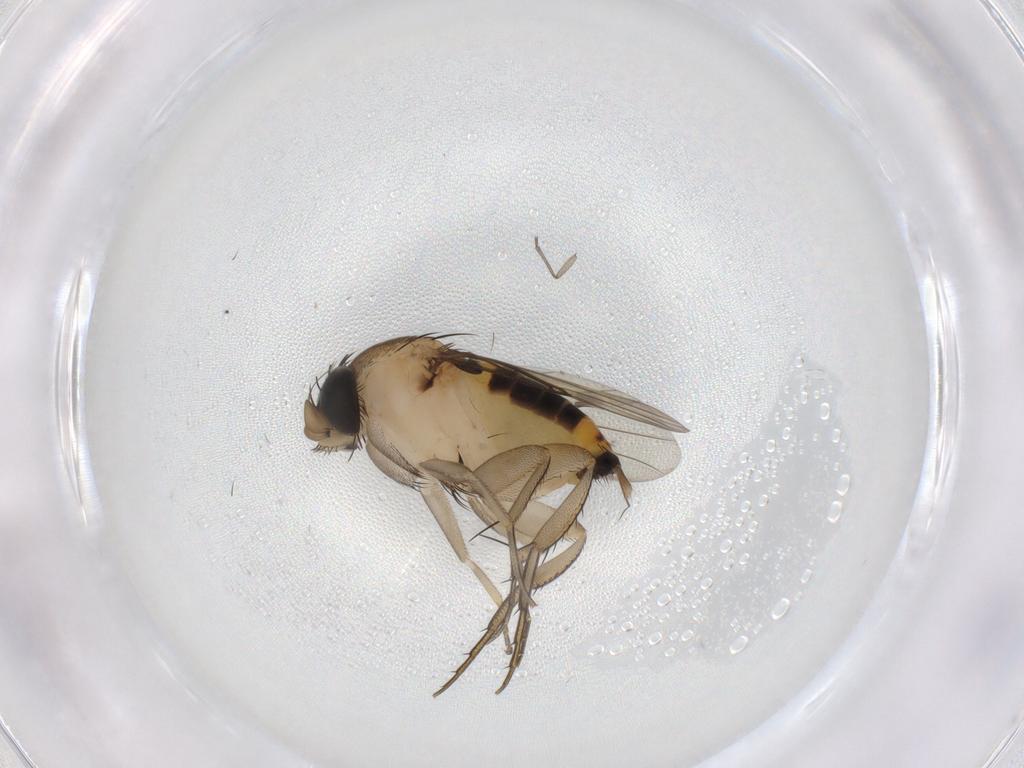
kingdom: Animalia
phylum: Arthropoda
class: Insecta
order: Diptera
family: Phoridae
